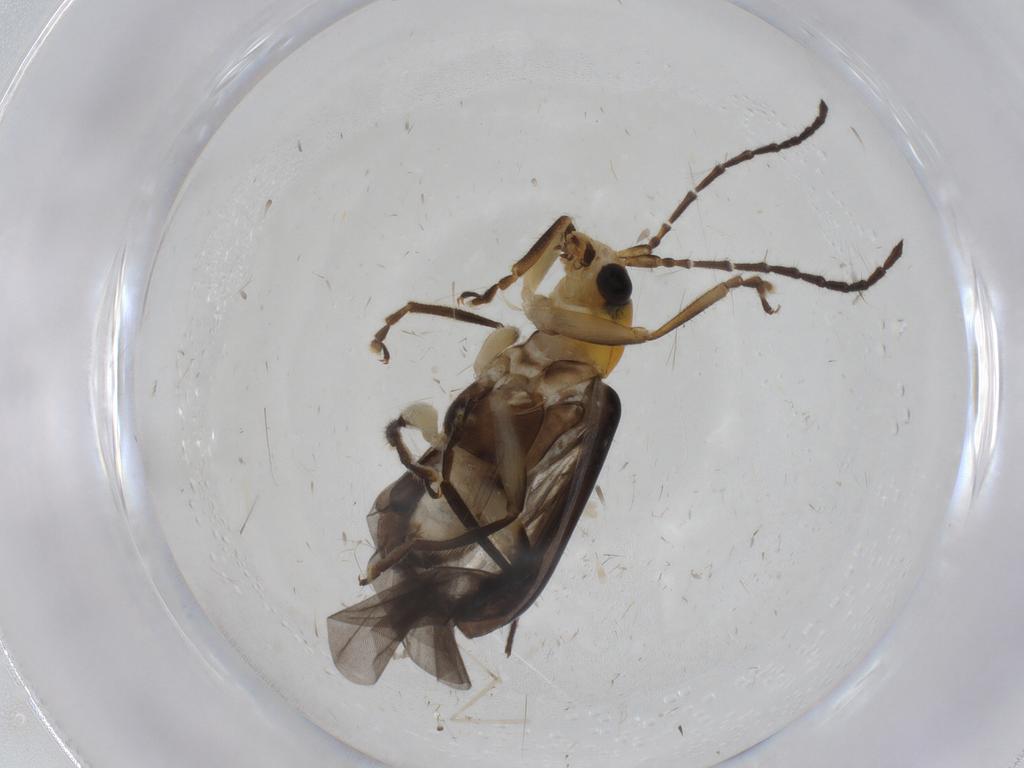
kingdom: Animalia
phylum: Arthropoda
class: Insecta
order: Coleoptera
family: Chrysomelidae
